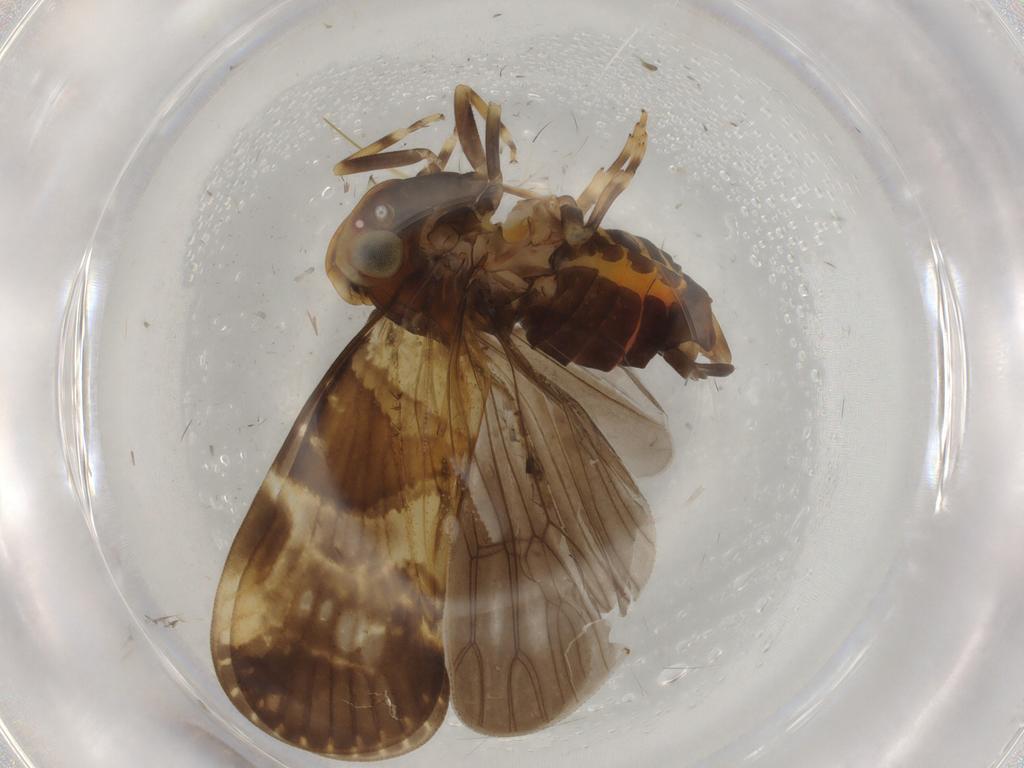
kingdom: Animalia
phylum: Arthropoda
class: Insecta
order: Hemiptera
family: Cixiidae
